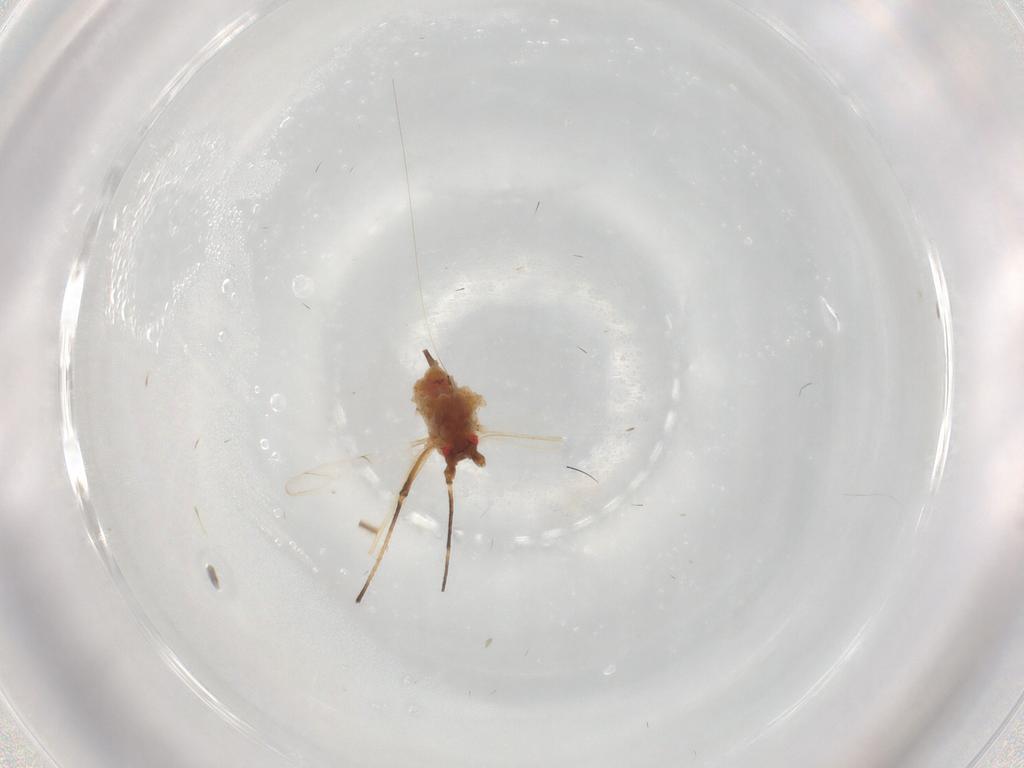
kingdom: Animalia
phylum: Arthropoda
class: Insecta
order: Hemiptera
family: Aphididae
